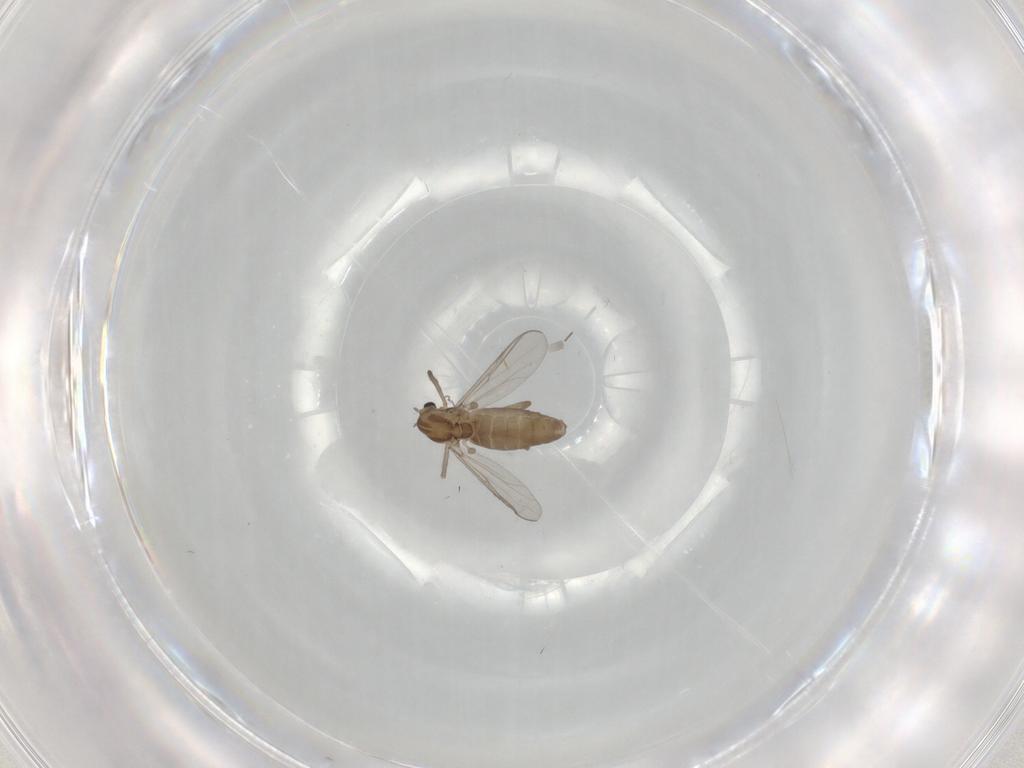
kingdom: Animalia
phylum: Arthropoda
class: Insecta
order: Diptera
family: Chironomidae
